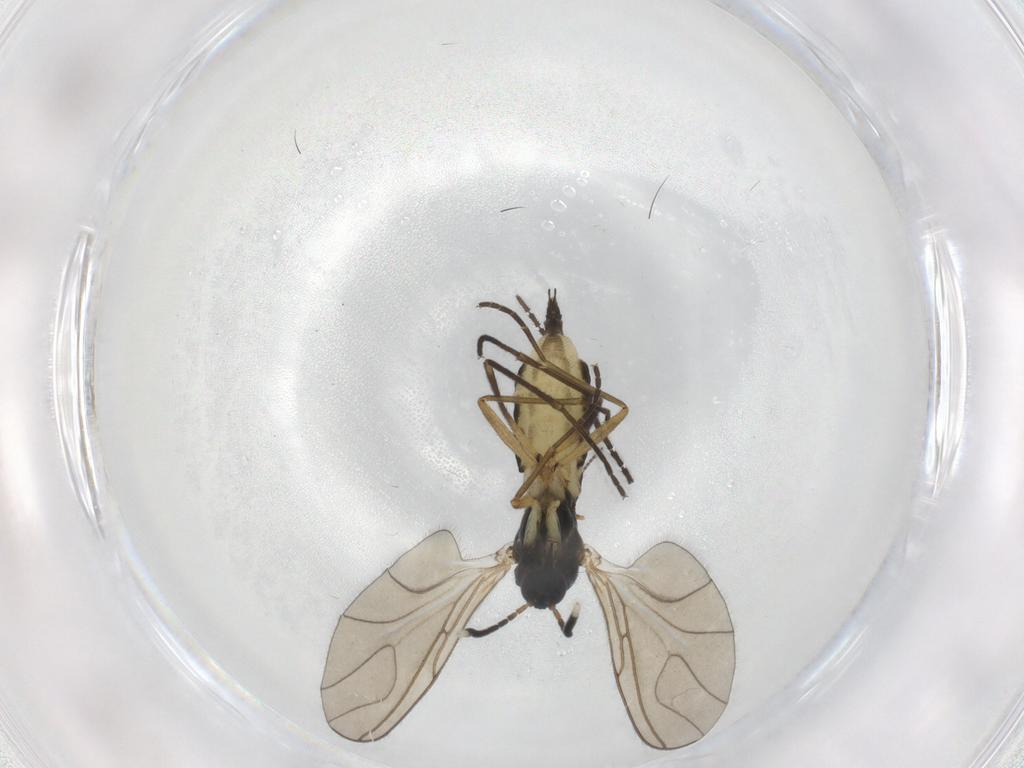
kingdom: Animalia
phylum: Arthropoda
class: Insecta
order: Diptera
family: Sciaridae
